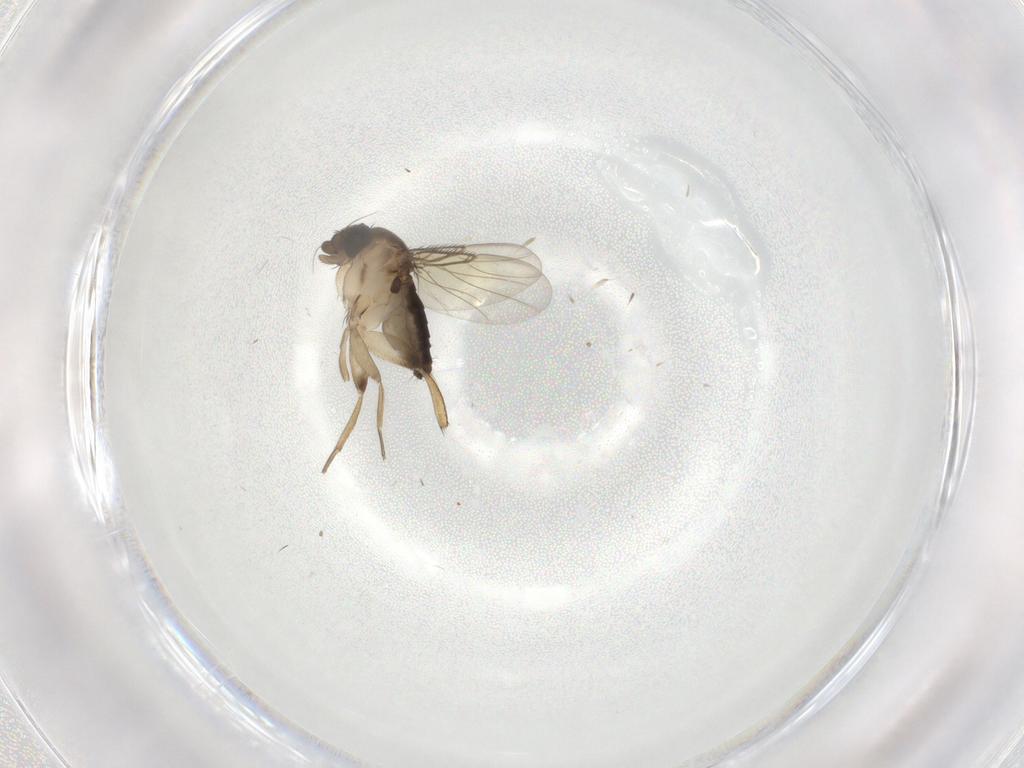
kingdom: Animalia
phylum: Arthropoda
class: Insecta
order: Diptera
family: Phoridae
